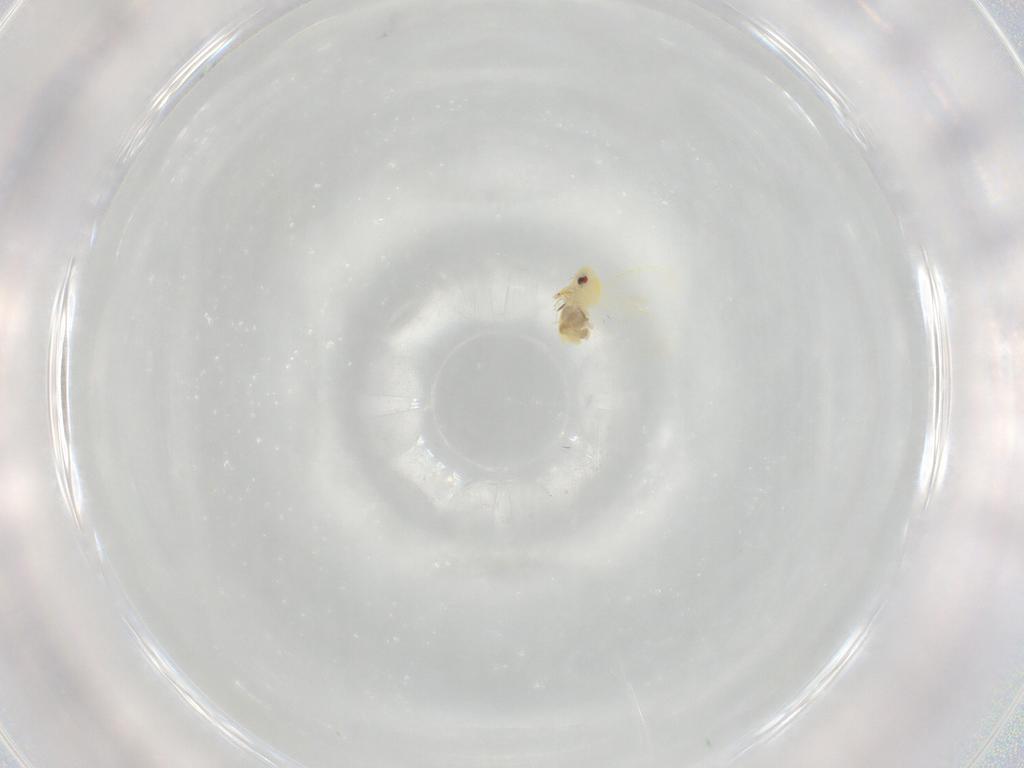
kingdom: Animalia
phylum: Arthropoda
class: Insecta
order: Hemiptera
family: Aleyrodidae
